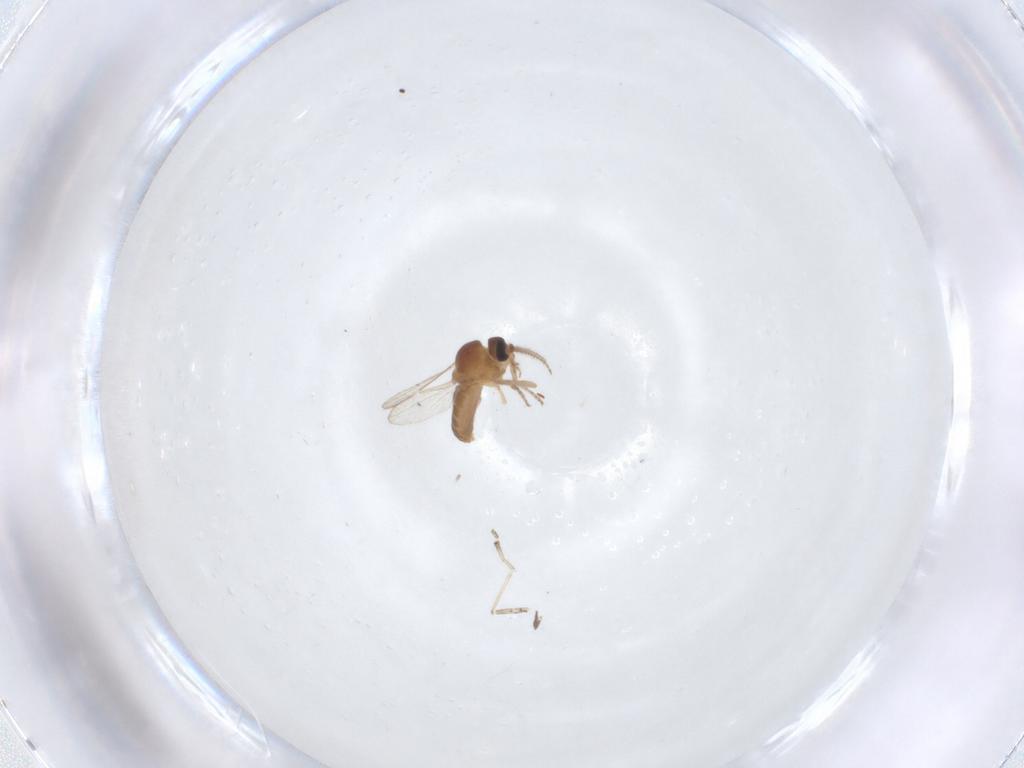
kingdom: Animalia
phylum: Arthropoda
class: Insecta
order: Diptera
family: Ceratopogonidae
